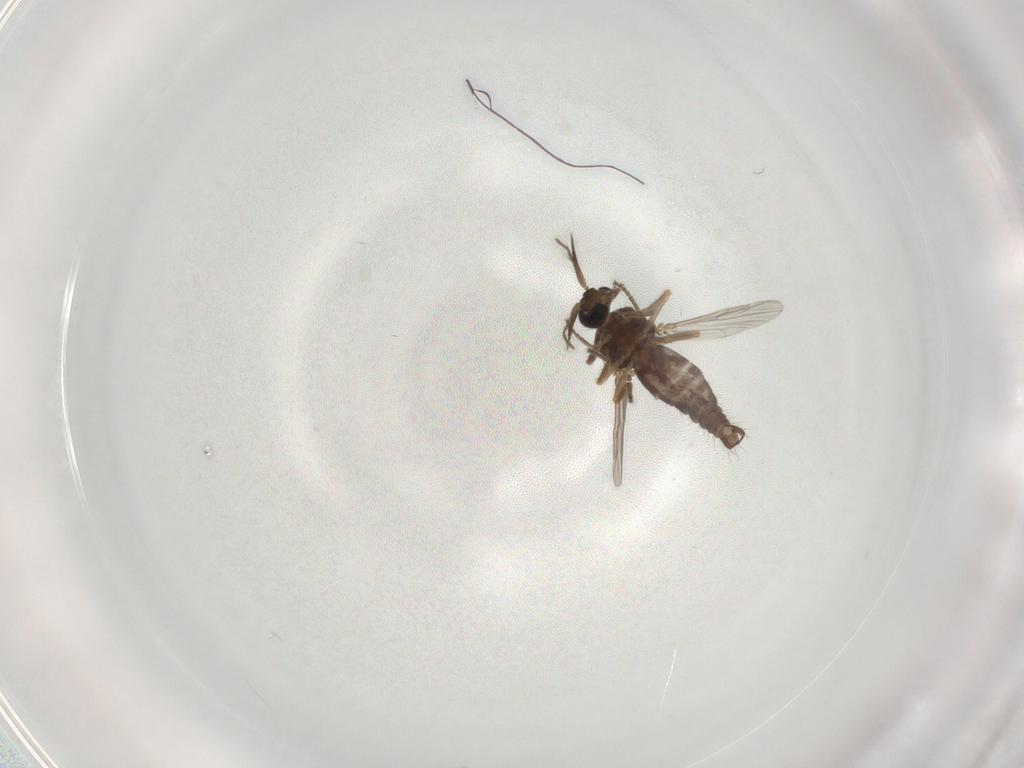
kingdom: Animalia
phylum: Arthropoda
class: Insecta
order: Diptera
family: Ceratopogonidae
